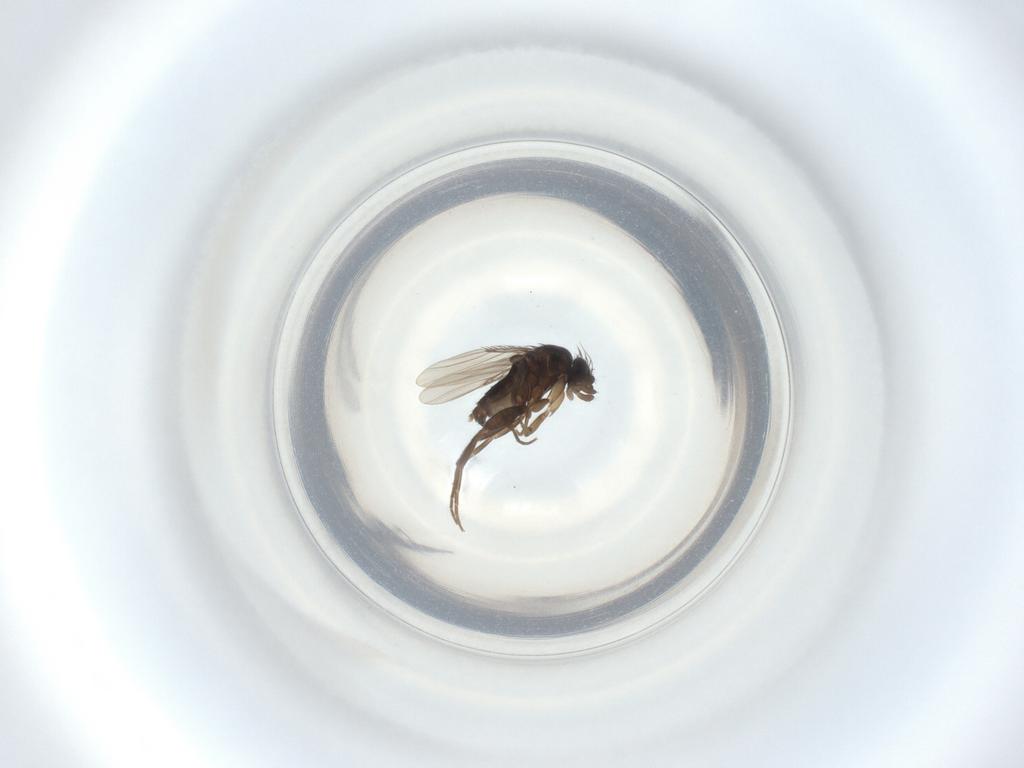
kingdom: Animalia
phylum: Arthropoda
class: Insecta
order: Diptera
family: Phoridae
